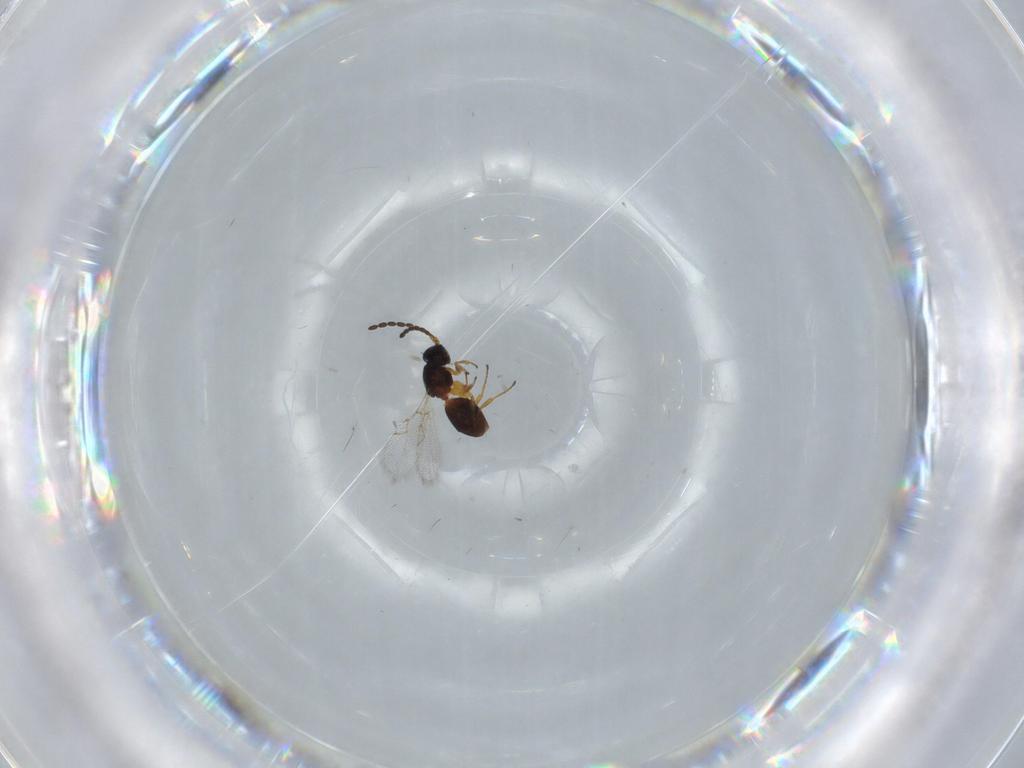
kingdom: Animalia
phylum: Arthropoda
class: Insecta
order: Hymenoptera
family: Figitidae
